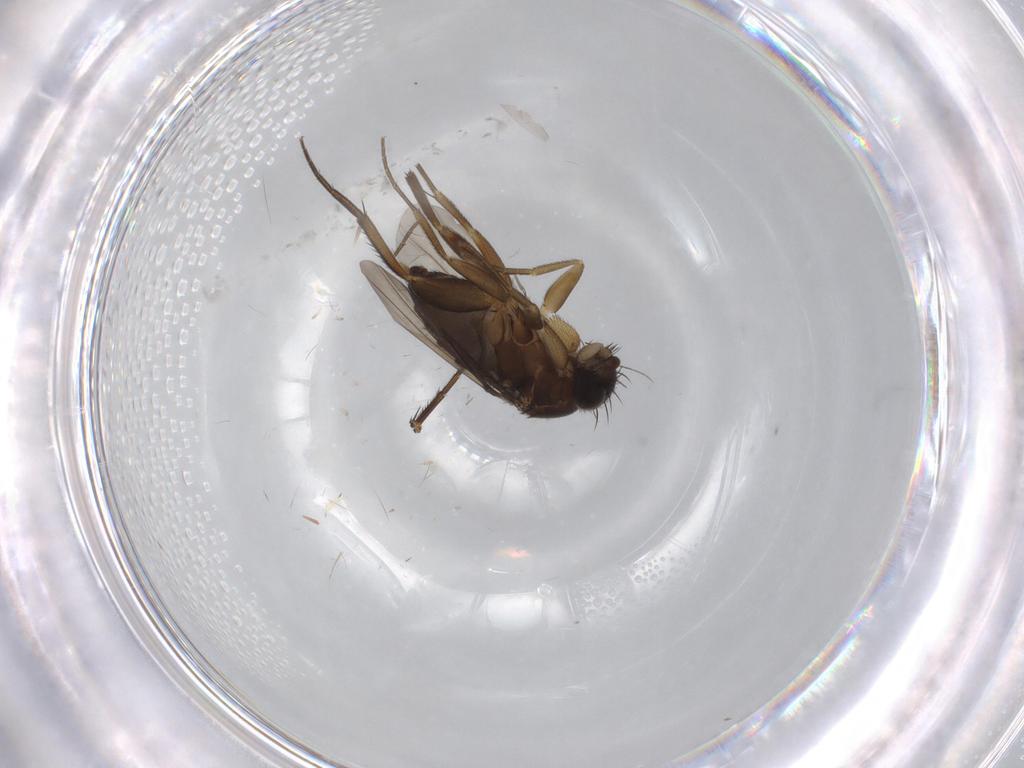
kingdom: Animalia
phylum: Arthropoda
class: Insecta
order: Diptera
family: Phoridae
